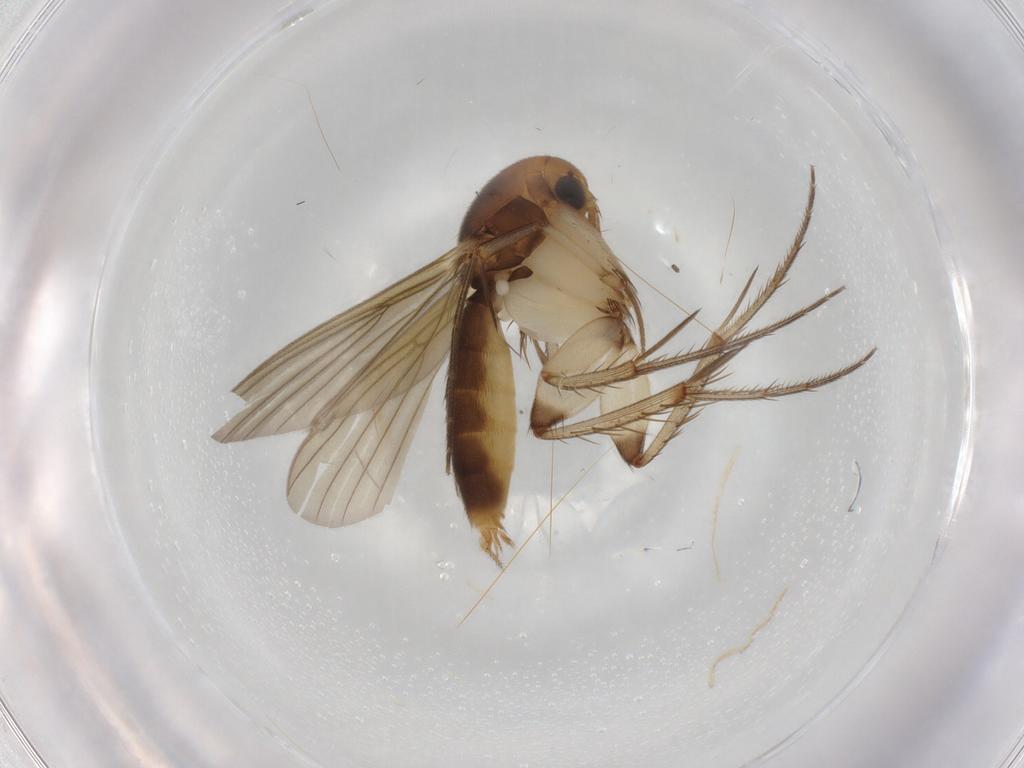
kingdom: Animalia
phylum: Arthropoda
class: Insecta
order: Diptera
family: Mycetophilidae
